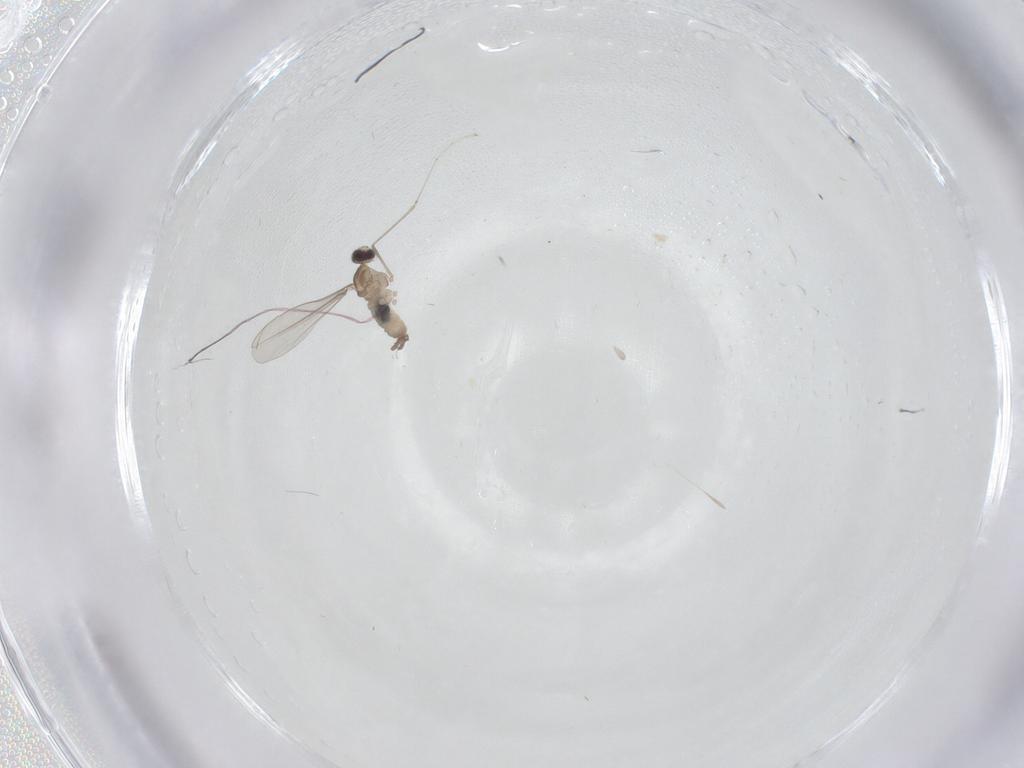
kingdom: Animalia
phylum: Arthropoda
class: Insecta
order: Diptera
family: Cecidomyiidae
